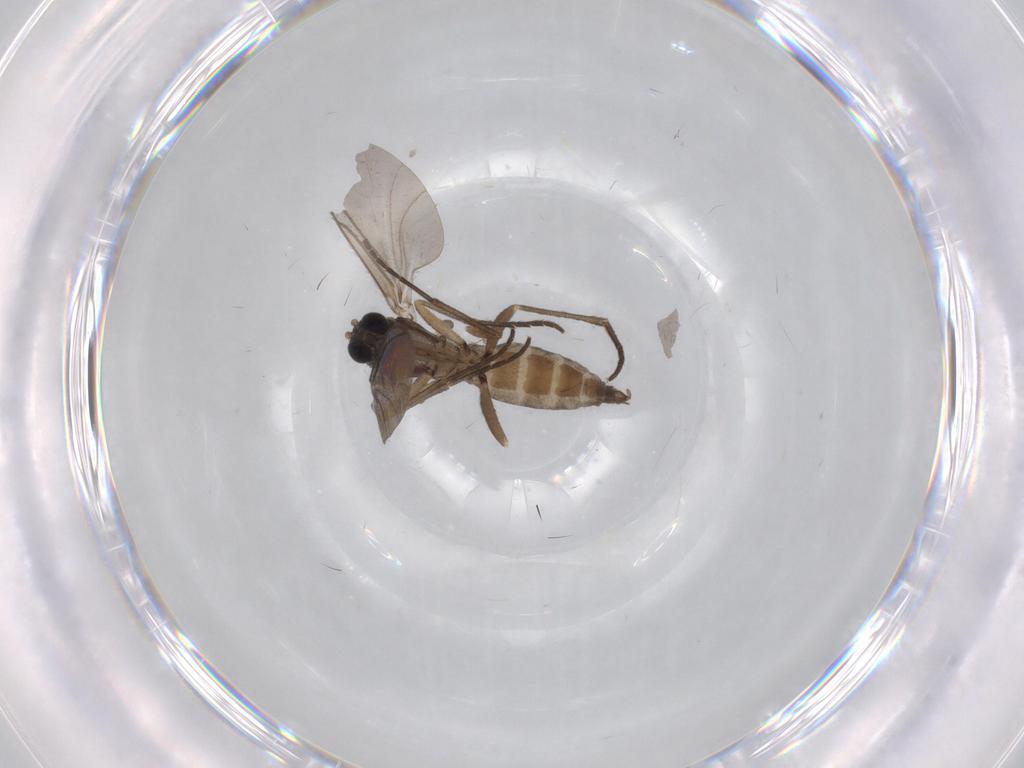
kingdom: Animalia
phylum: Arthropoda
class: Insecta
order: Diptera
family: Sciaridae
